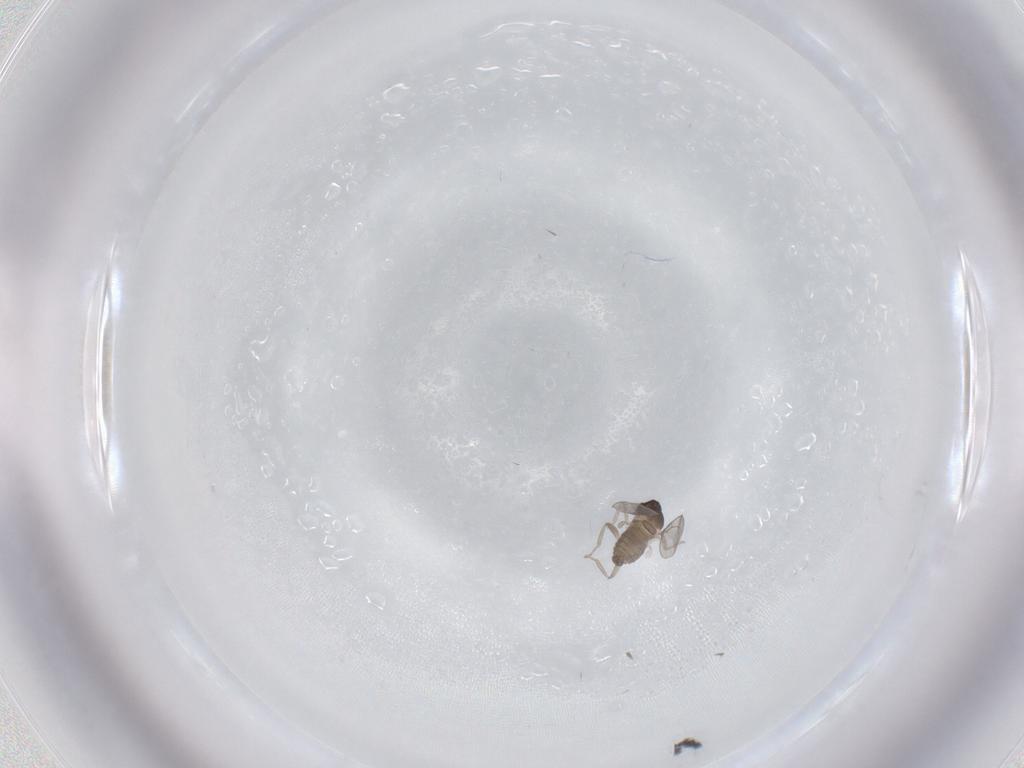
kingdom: Animalia
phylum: Arthropoda
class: Insecta
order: Diptera
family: Cecidomyiidae
